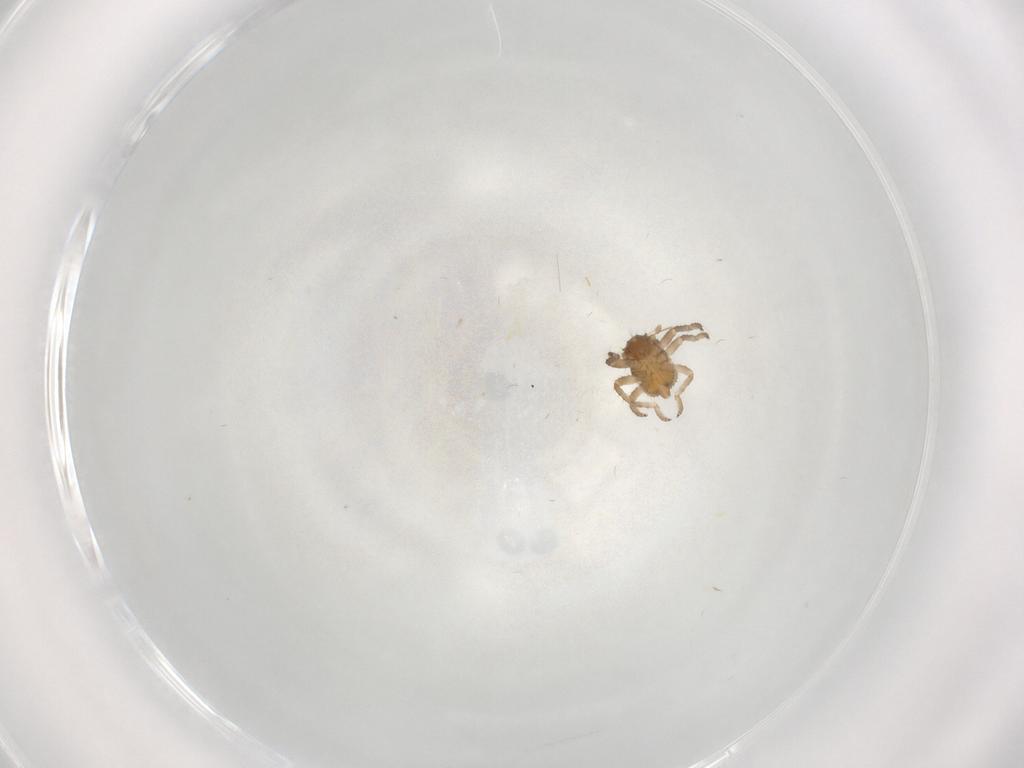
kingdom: Animalia
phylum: Arthropoda
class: Insecta
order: Hemiptera
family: Tettigometridae
